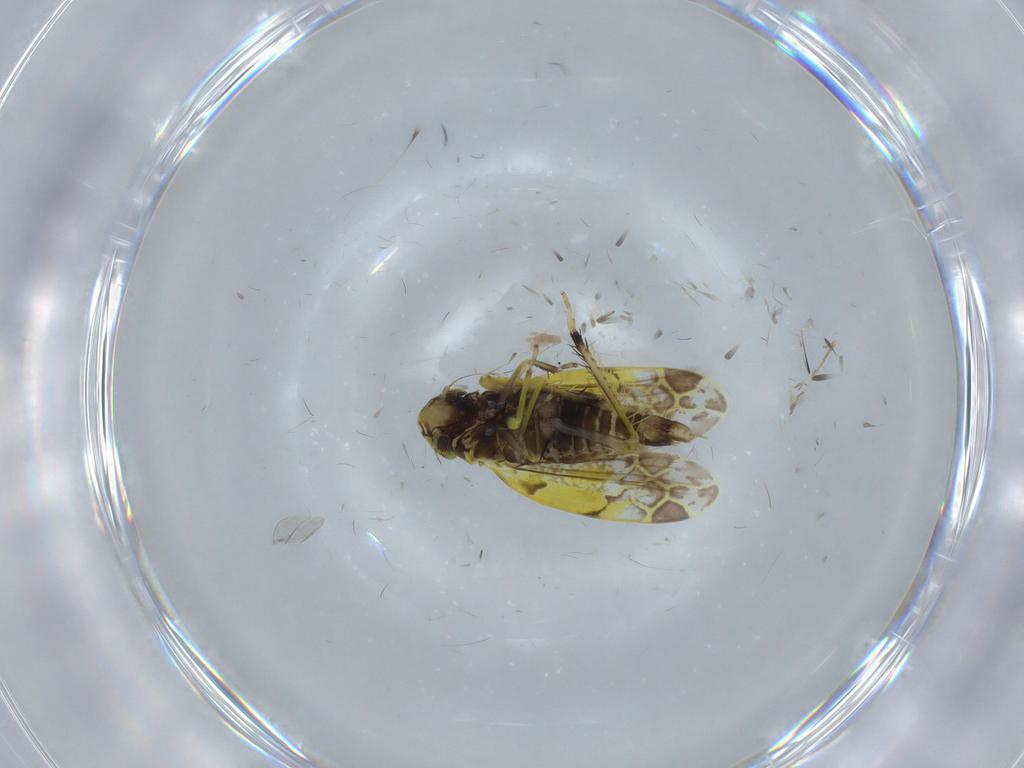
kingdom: Animalia
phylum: Arthropoda
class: Insecta
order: Hemiptera
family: Cicadellidae
